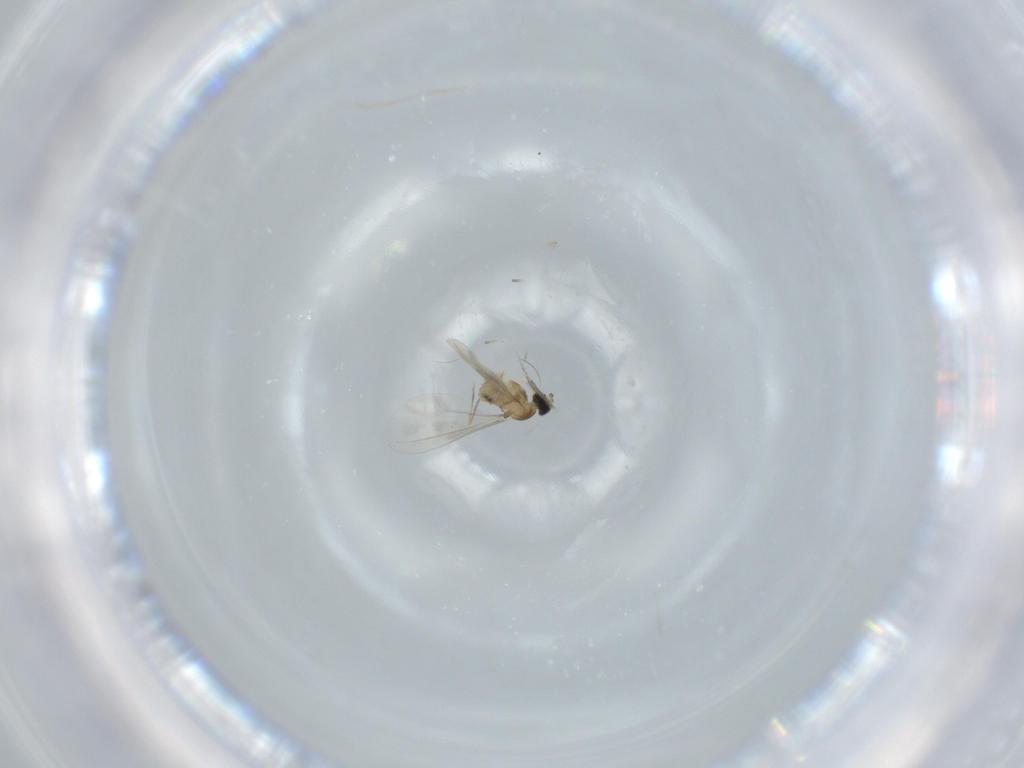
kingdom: Animalia
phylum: Arthropoda
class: Insecta
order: Diptera
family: Cecidomyiidae
